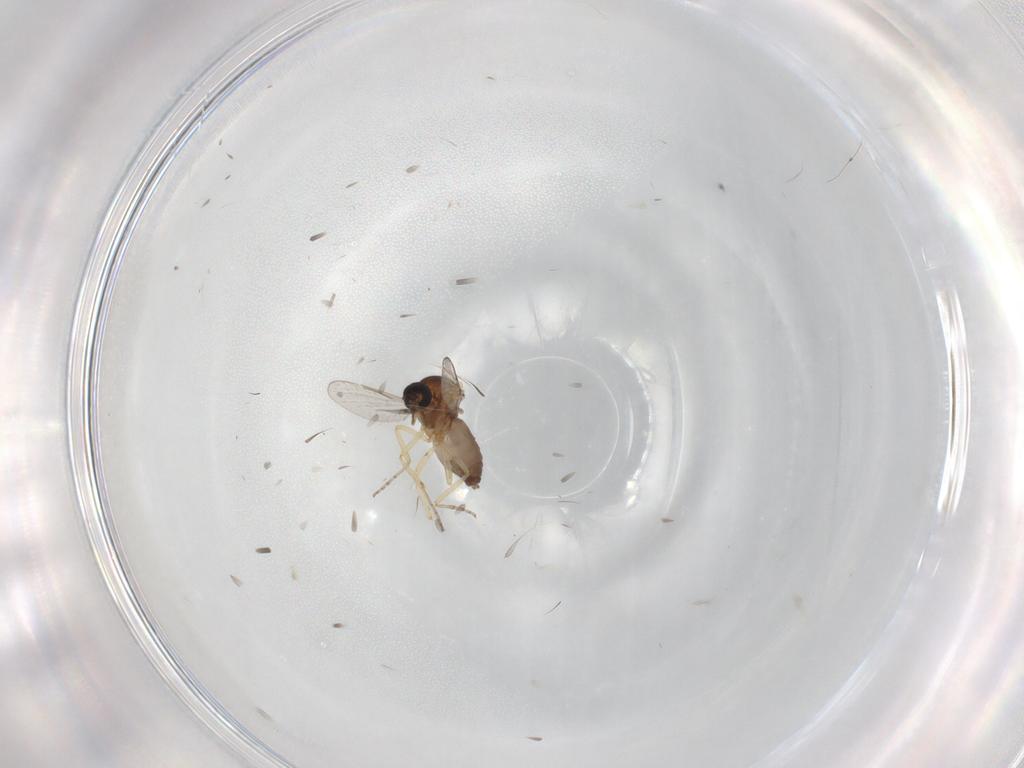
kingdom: Animalia
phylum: Arthropoda
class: Insecta
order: Diptera
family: Ceratopogonidae
